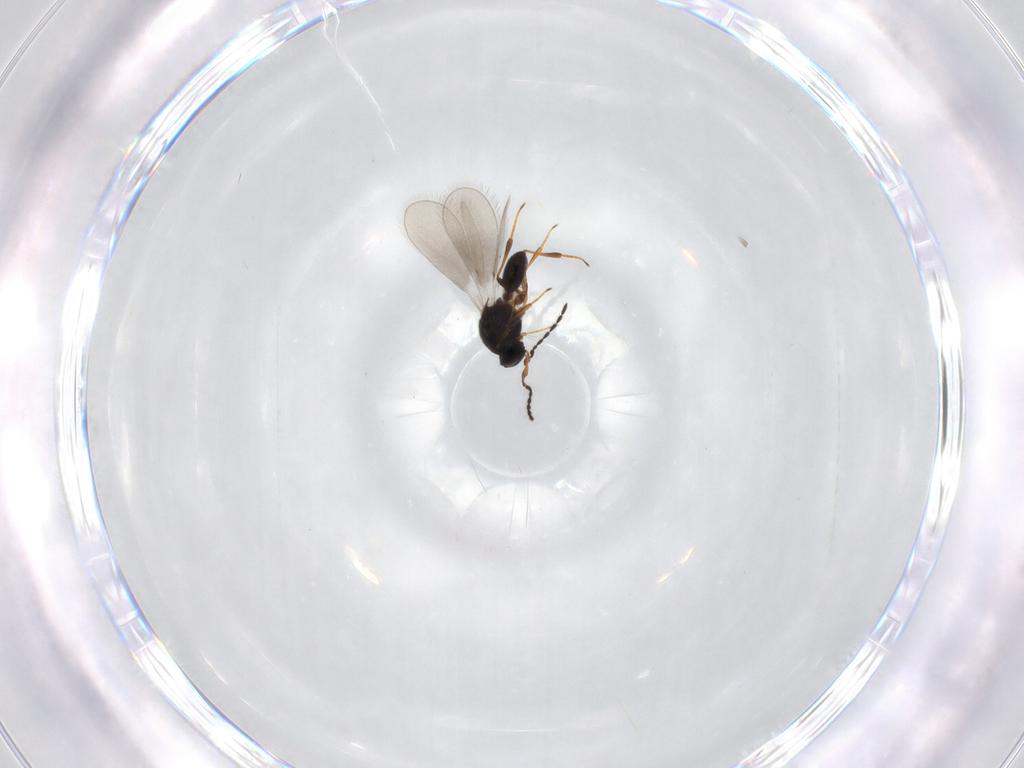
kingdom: Animalia
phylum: Arthropoda
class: Insecta
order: Hymenoptera
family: Platygastridae
